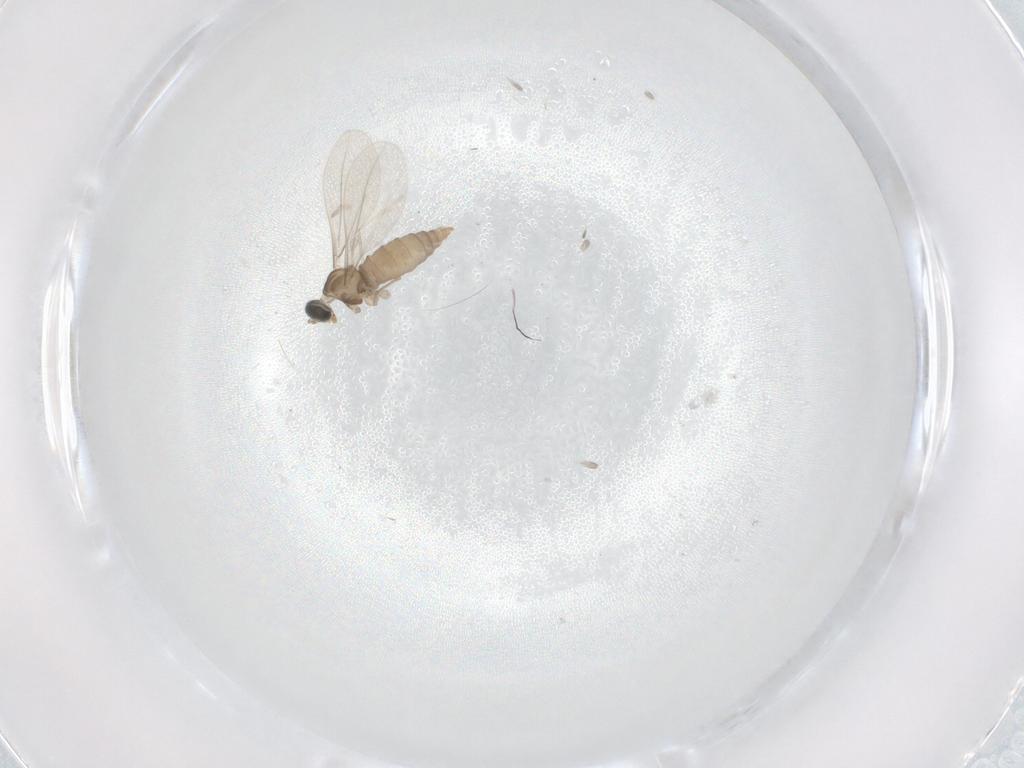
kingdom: Animalia
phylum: Arthropoda
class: Insecta
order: Diptera
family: Cecidomyiidae
